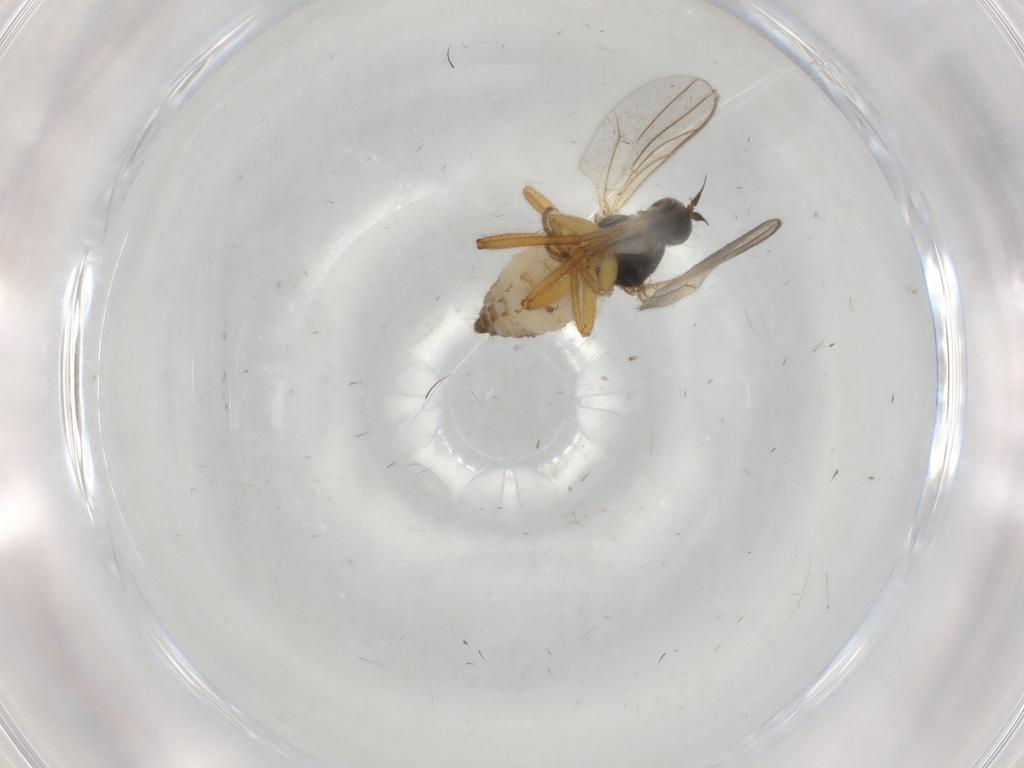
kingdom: Animalia
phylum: Arthropoda
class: Insecta
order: Diptera
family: Hybotidae
